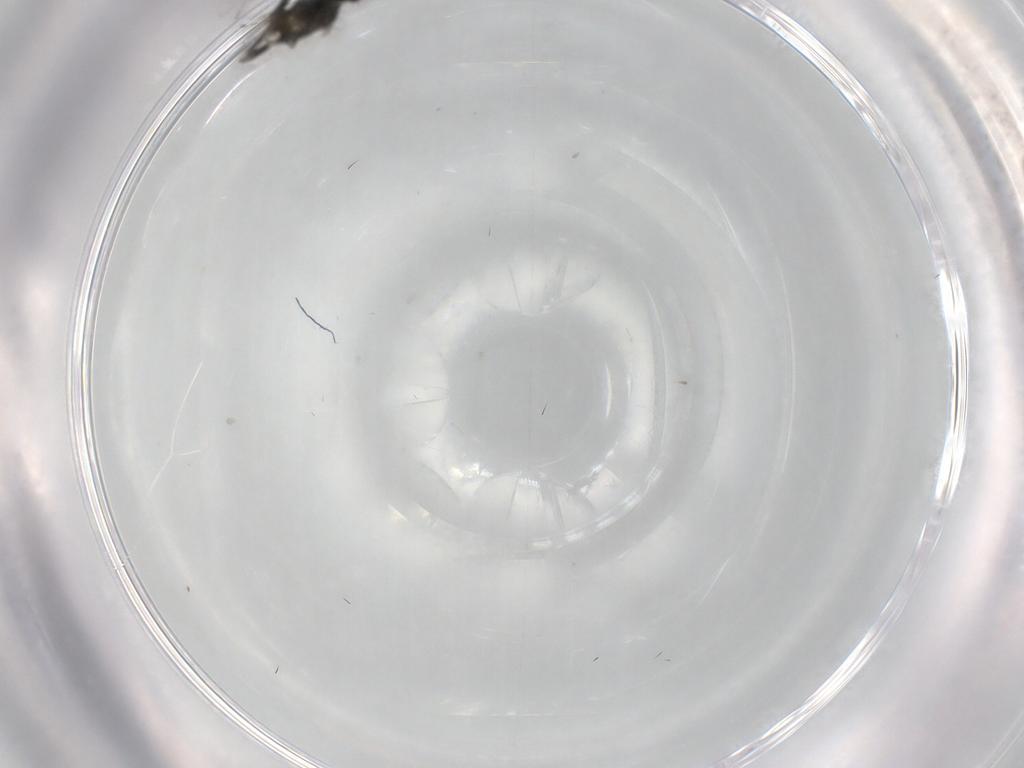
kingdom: Animalia
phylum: Arthropoda
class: Insecta
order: Hymenoptera
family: Eulophidae
